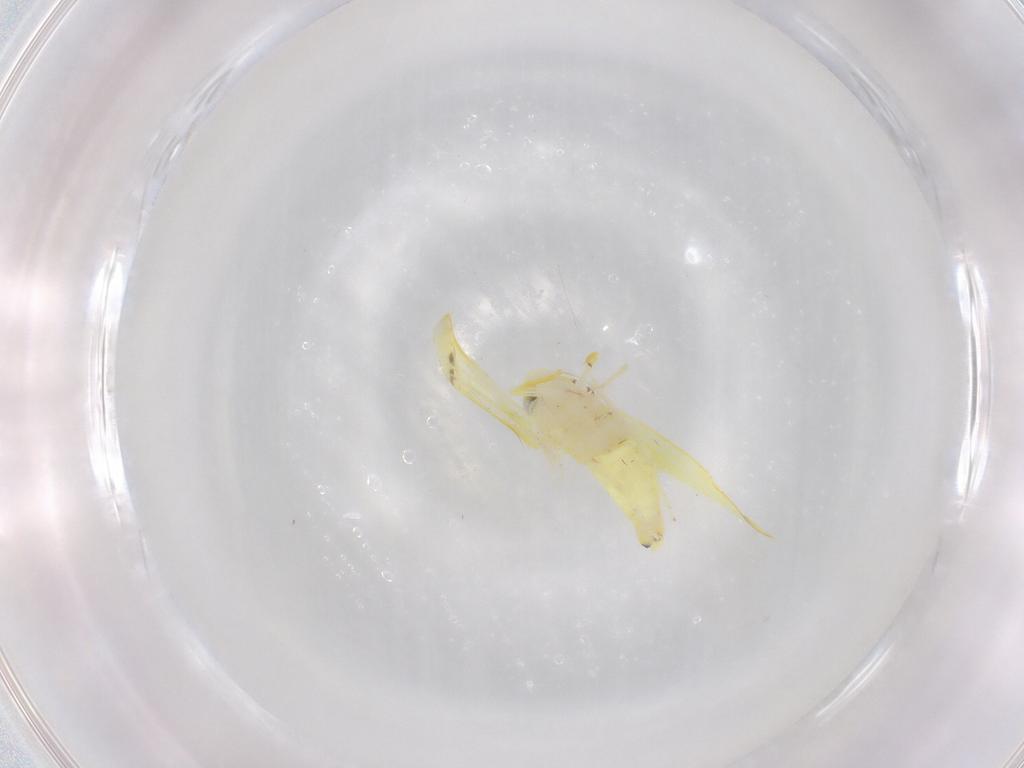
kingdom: Animalia
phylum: Arthropoda
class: Insecta
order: Hemiptera
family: Cicadellidae
